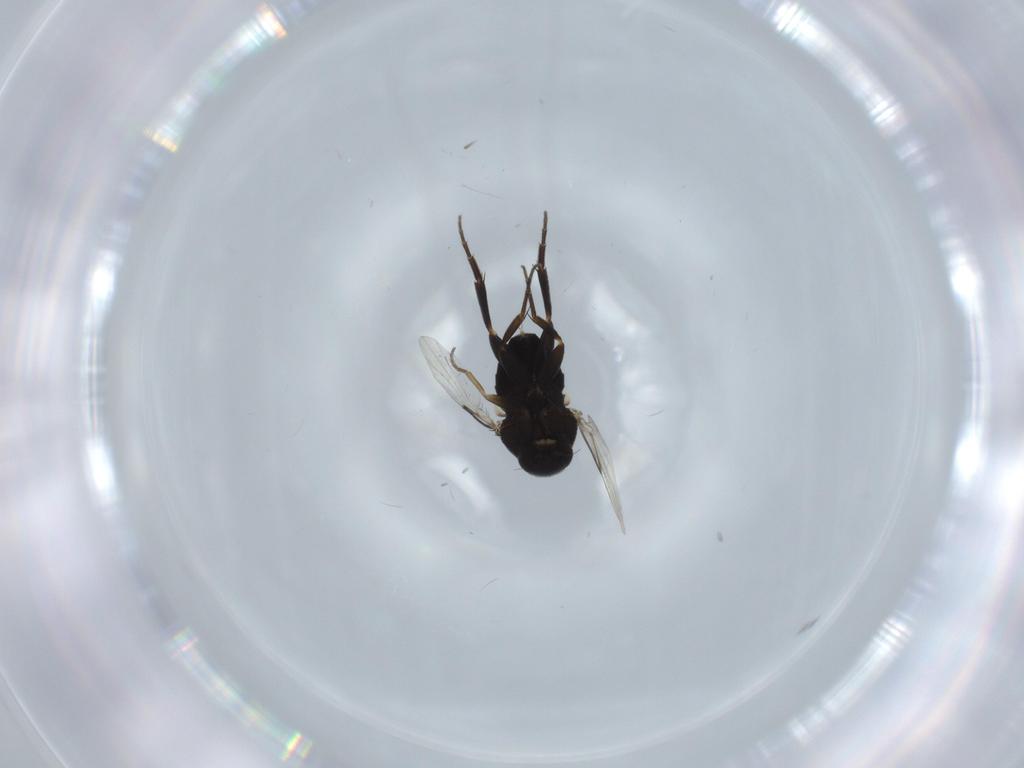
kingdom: Animalia
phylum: Arthropoda
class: Insecta
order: Diptera
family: Phoridae
